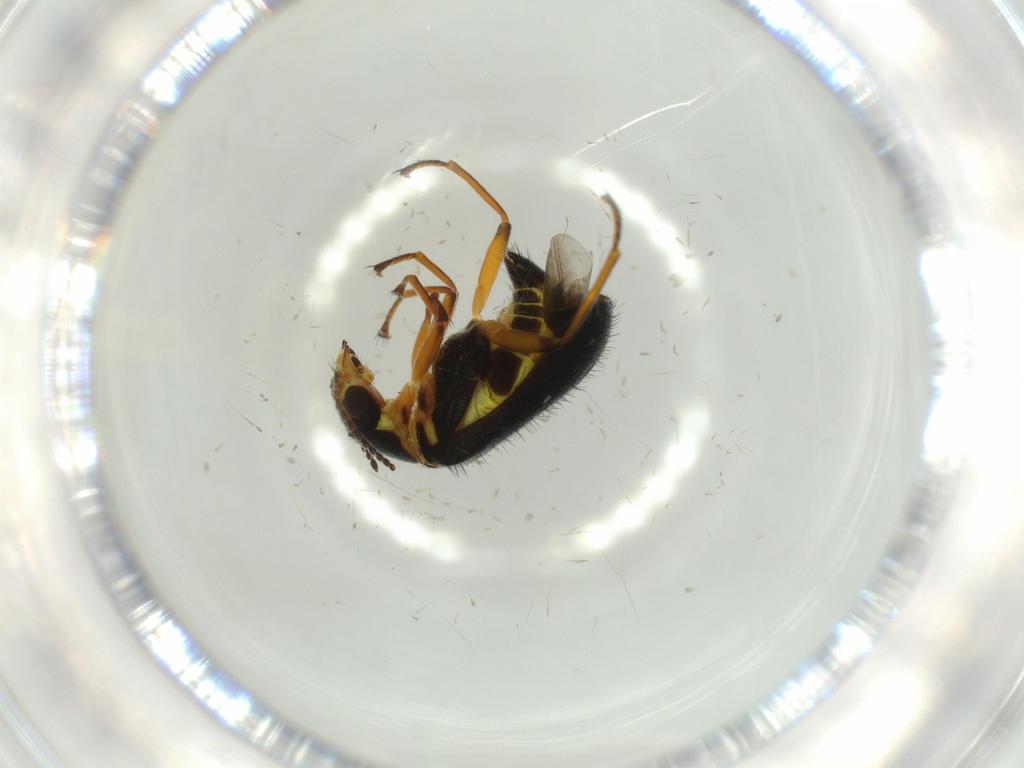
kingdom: Animalia
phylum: Arthropoda
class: Insecta
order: Coleoptera
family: Melyridae
